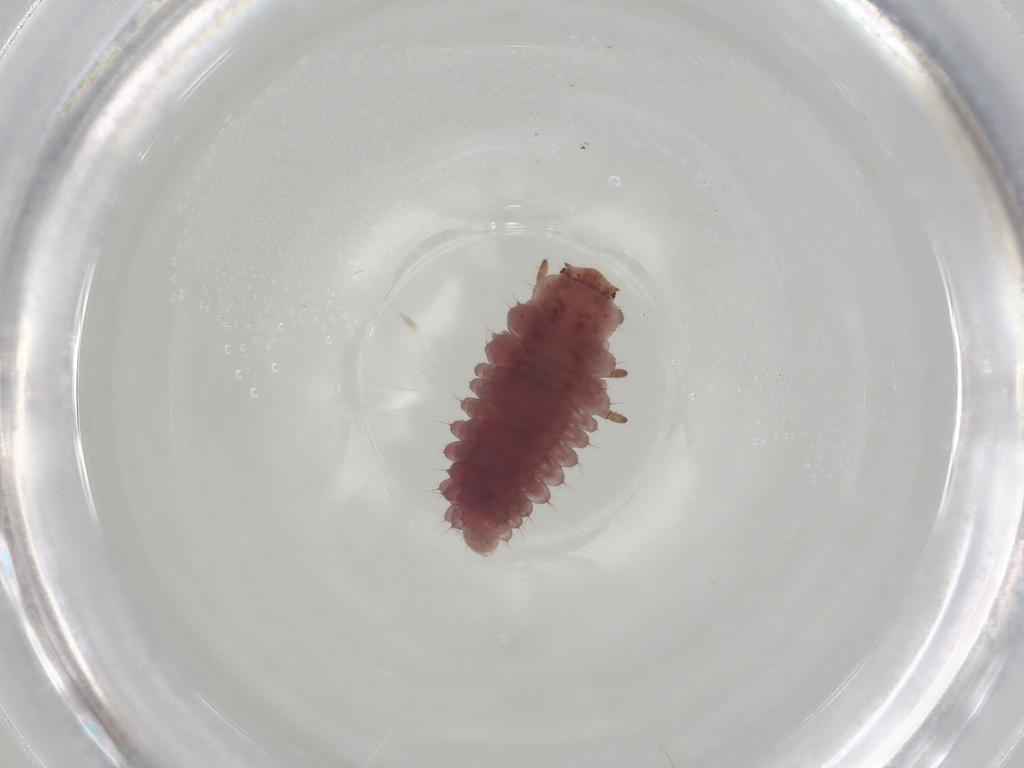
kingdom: Animalia
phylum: Arthropoda
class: Insecta
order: Coleoptera
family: Coccinellidae
